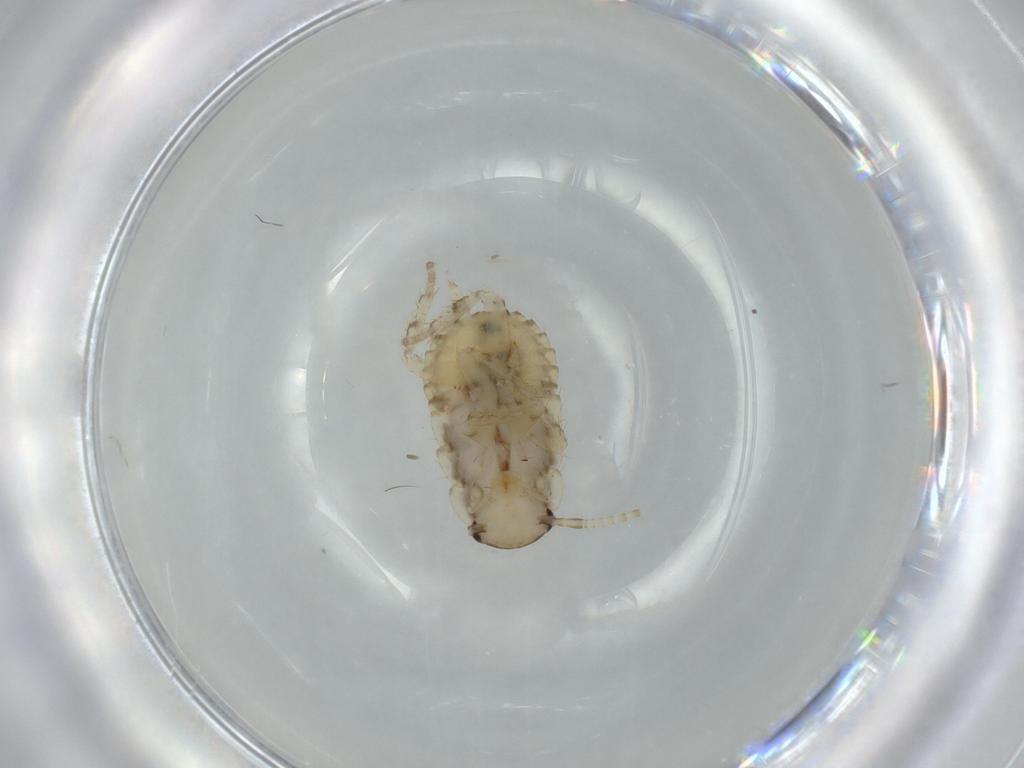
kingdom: Animalia
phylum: Arthropoda
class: Insecta
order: Blattodea
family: Ectobiidae
